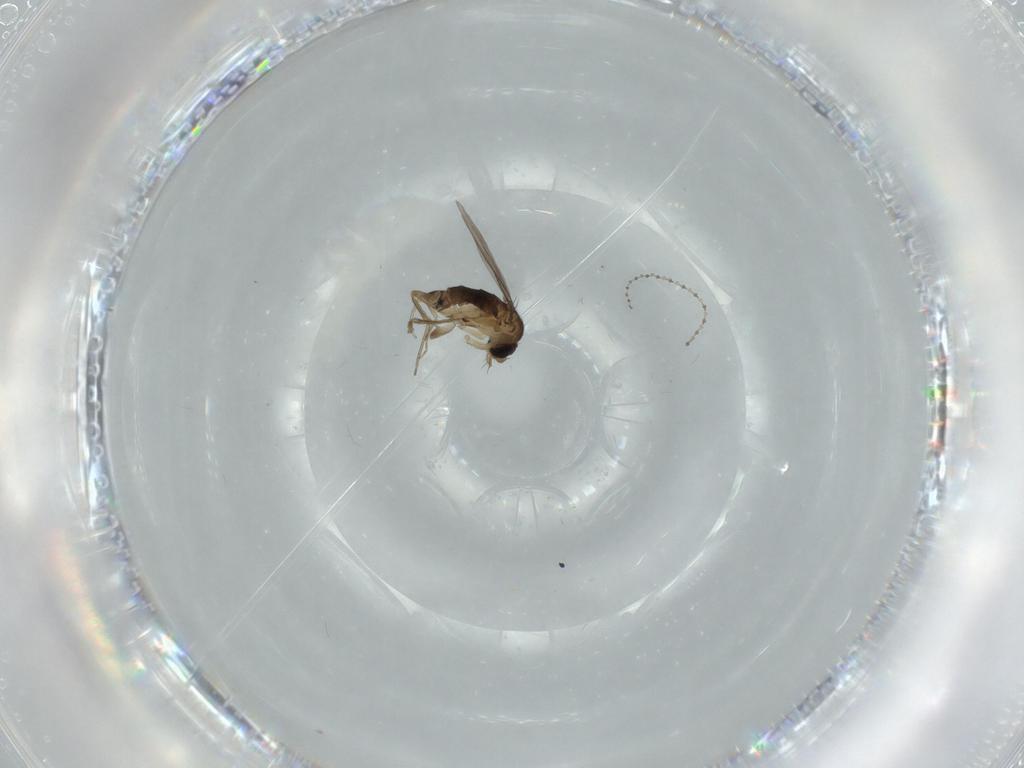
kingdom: Animalia
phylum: Arthropoda
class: Insecta
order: Diptera
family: Phoridae
